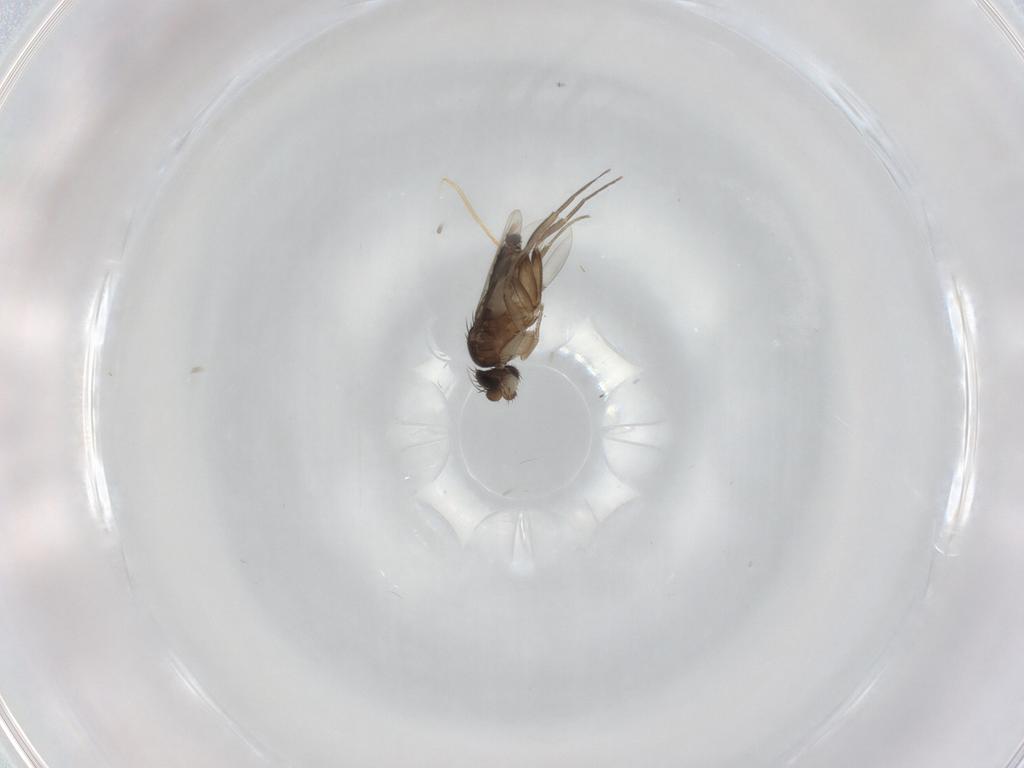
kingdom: Animalia
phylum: Arthropoda
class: Insecta
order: Diptera
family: Phoridae
